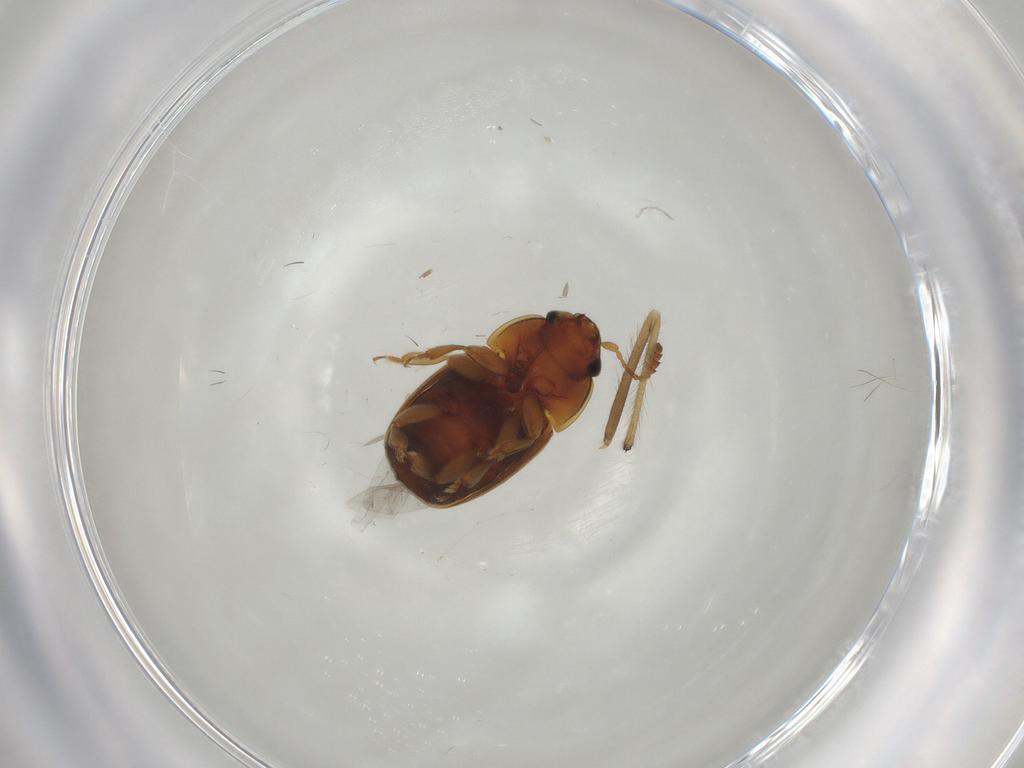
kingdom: Animalia
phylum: Arthropoda
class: Insecta
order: Coleoptera
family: Nitidulidae
